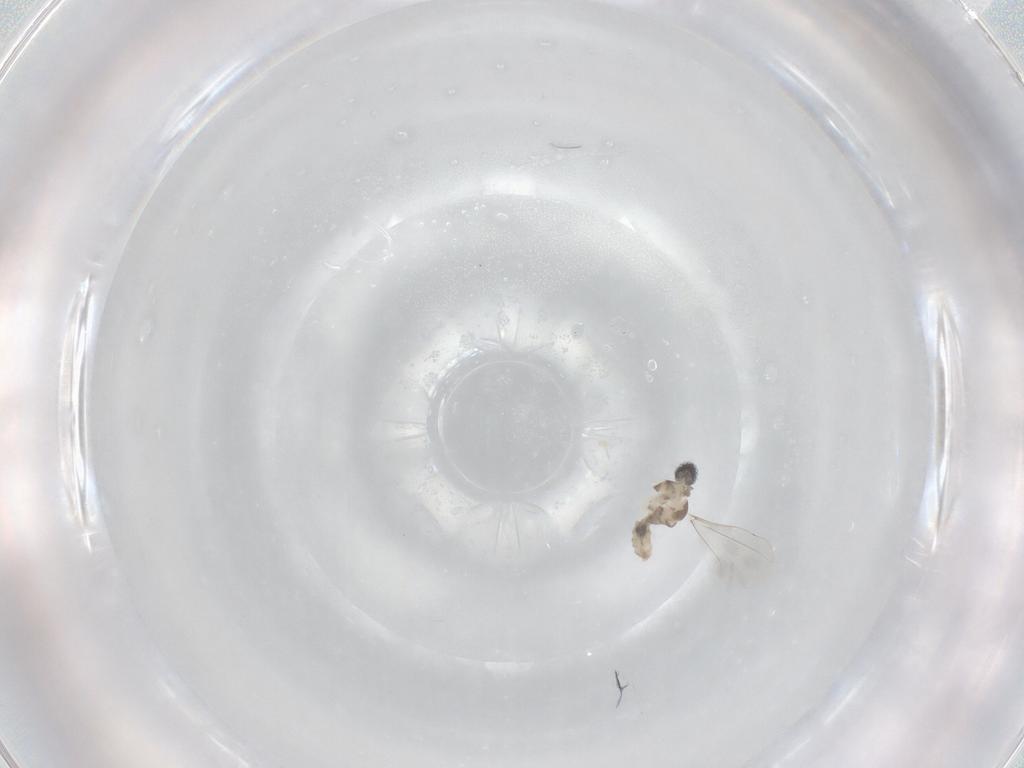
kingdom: Animalia
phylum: Arthropoda
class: Insecta
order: Diptera
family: Cecidomyiidae
